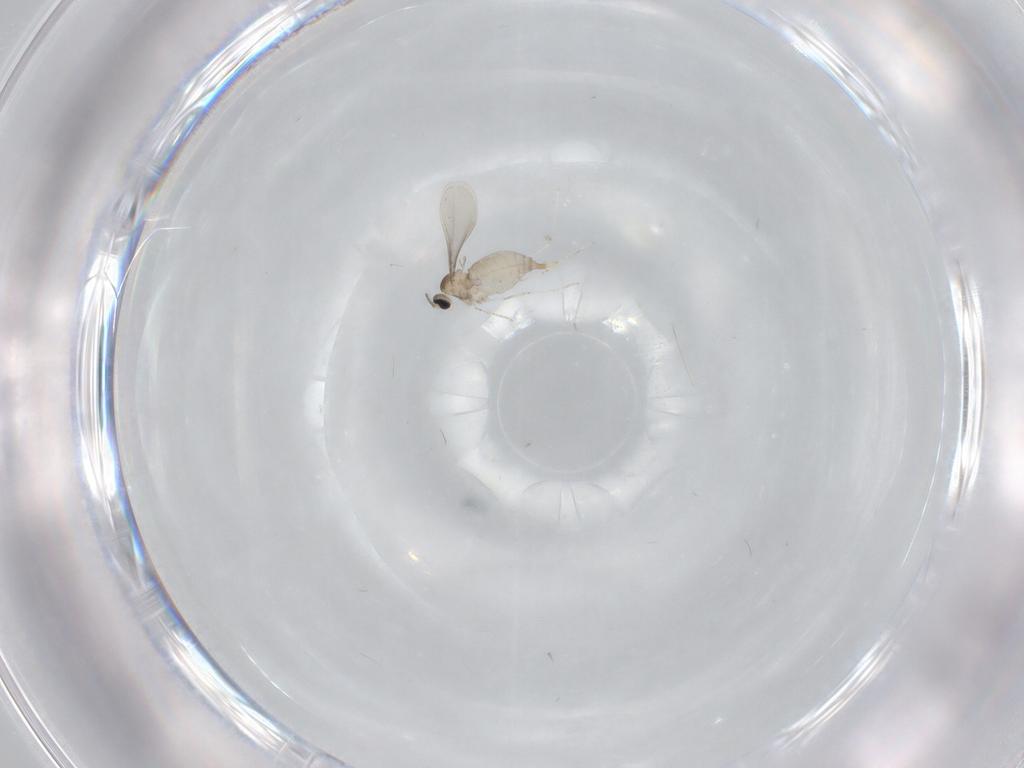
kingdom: Animalia
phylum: Arthropoda
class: Insecta
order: Diptera
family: Cecidomyiidae
